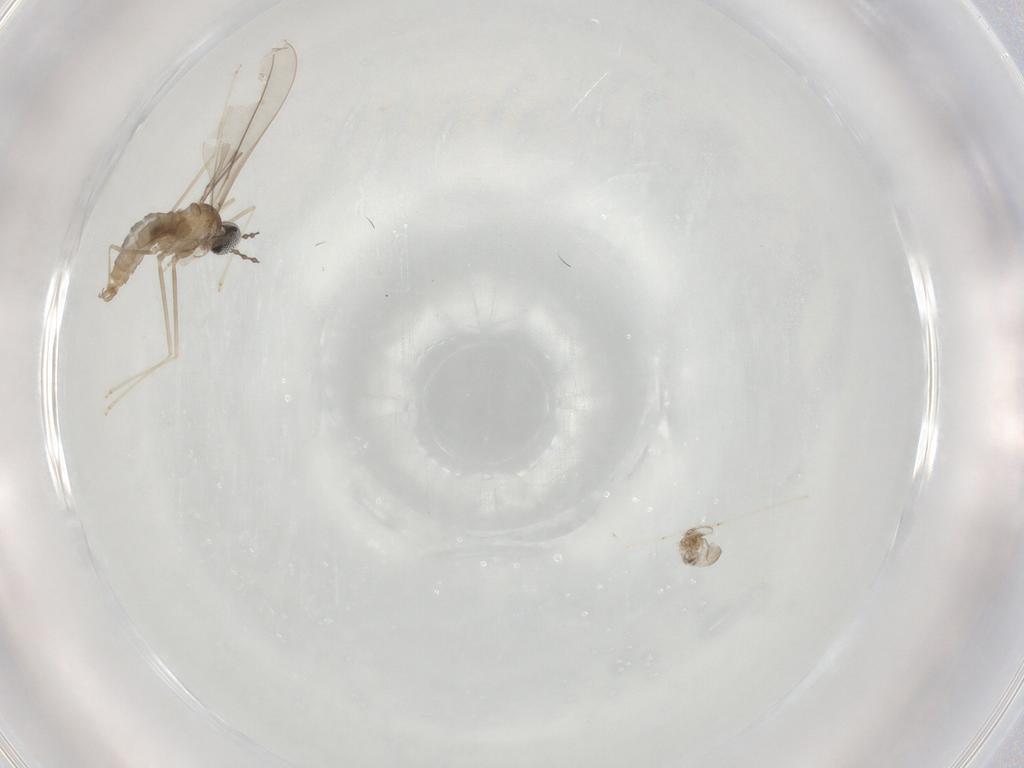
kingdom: Animalia
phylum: Arthropoda
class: Insecta
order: Diptera
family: Cecidomyiidae
